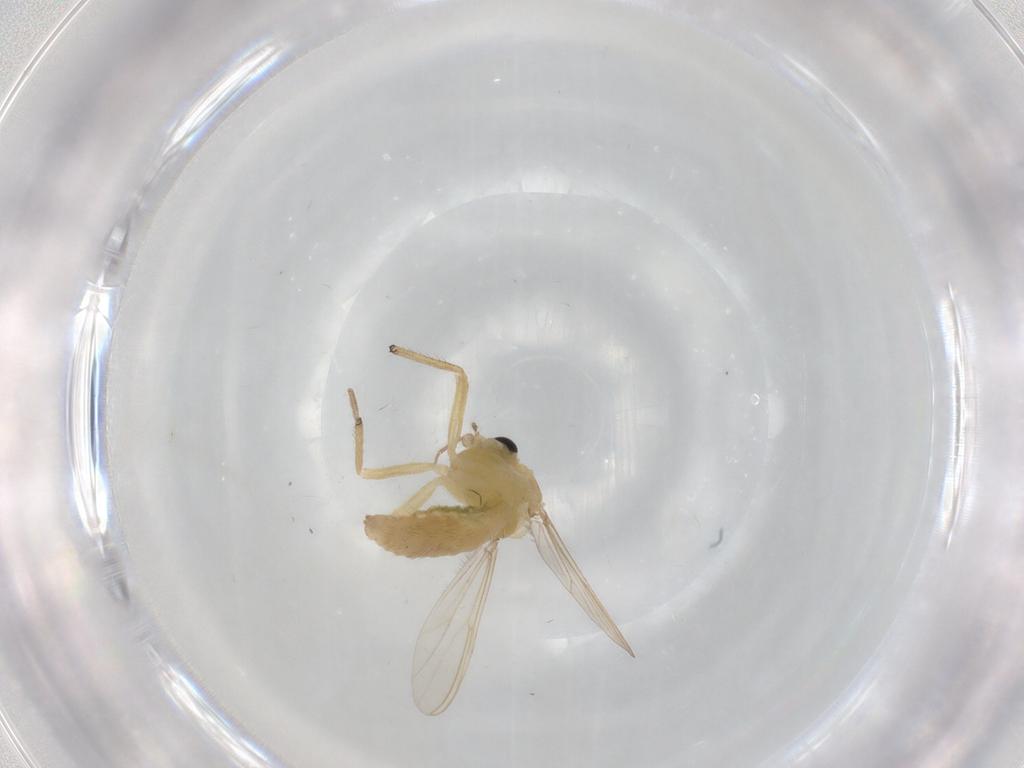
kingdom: Animalia
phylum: Arthropoda
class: Insecta
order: Diptera
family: Chironomidae
